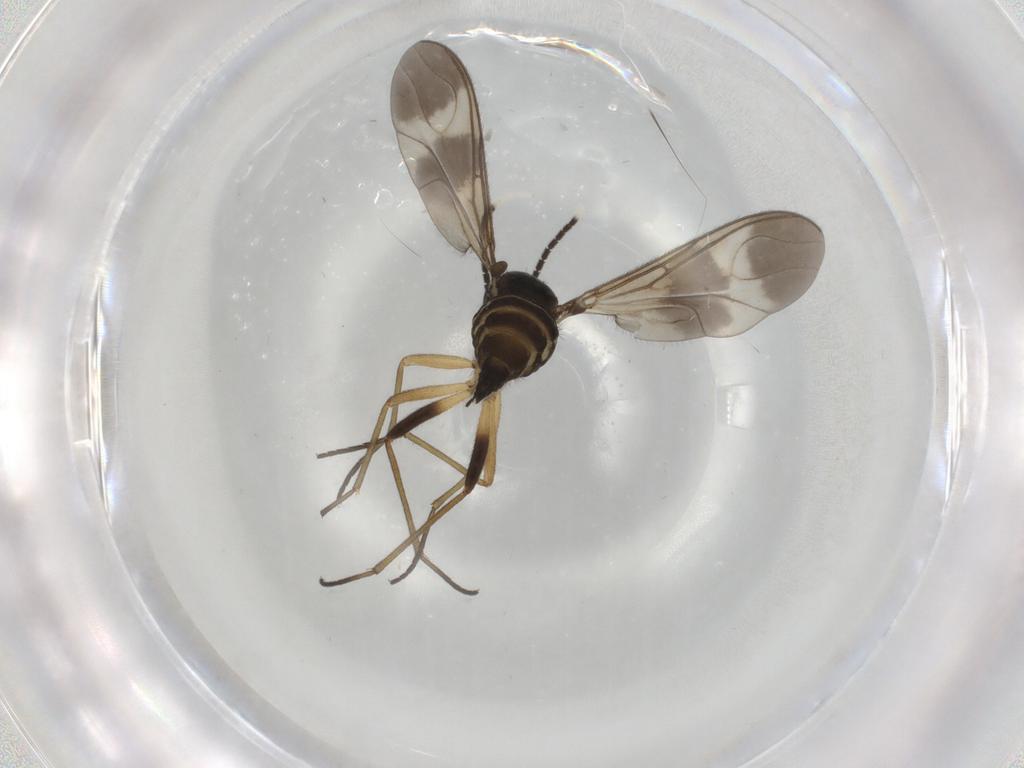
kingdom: Animalia
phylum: Arthropoda
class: Insecta
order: Diptera
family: Sciaridae
